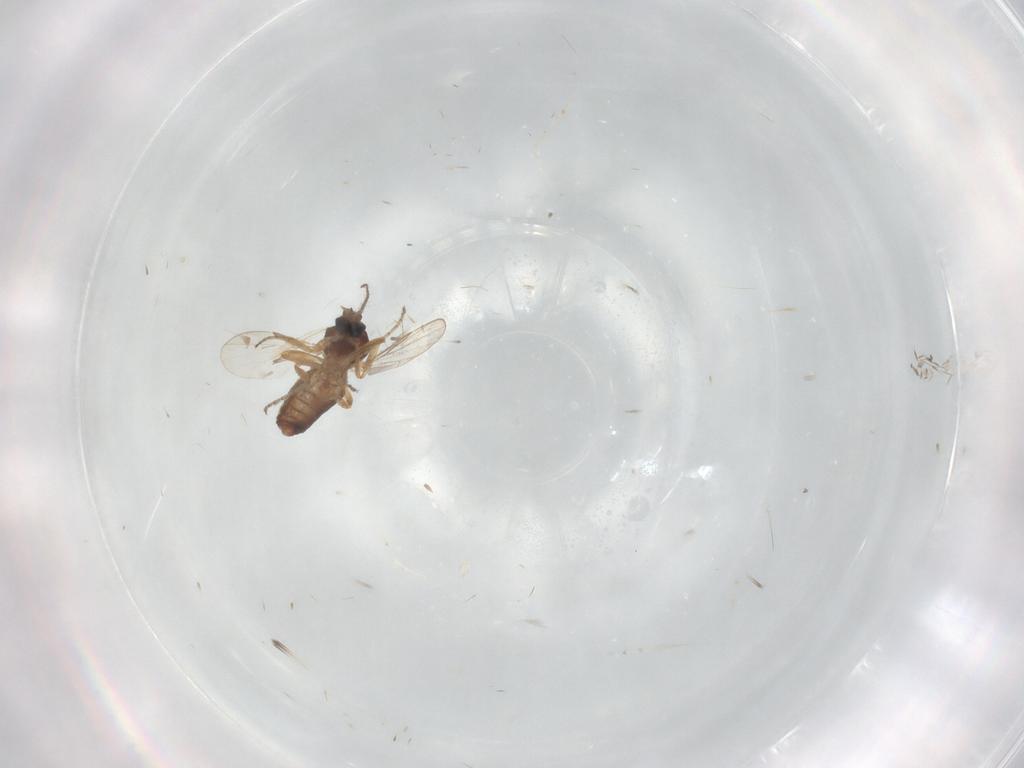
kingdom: Animalia
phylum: Arthropoda
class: Insecta
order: Diptera
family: Ceratopogonidae
